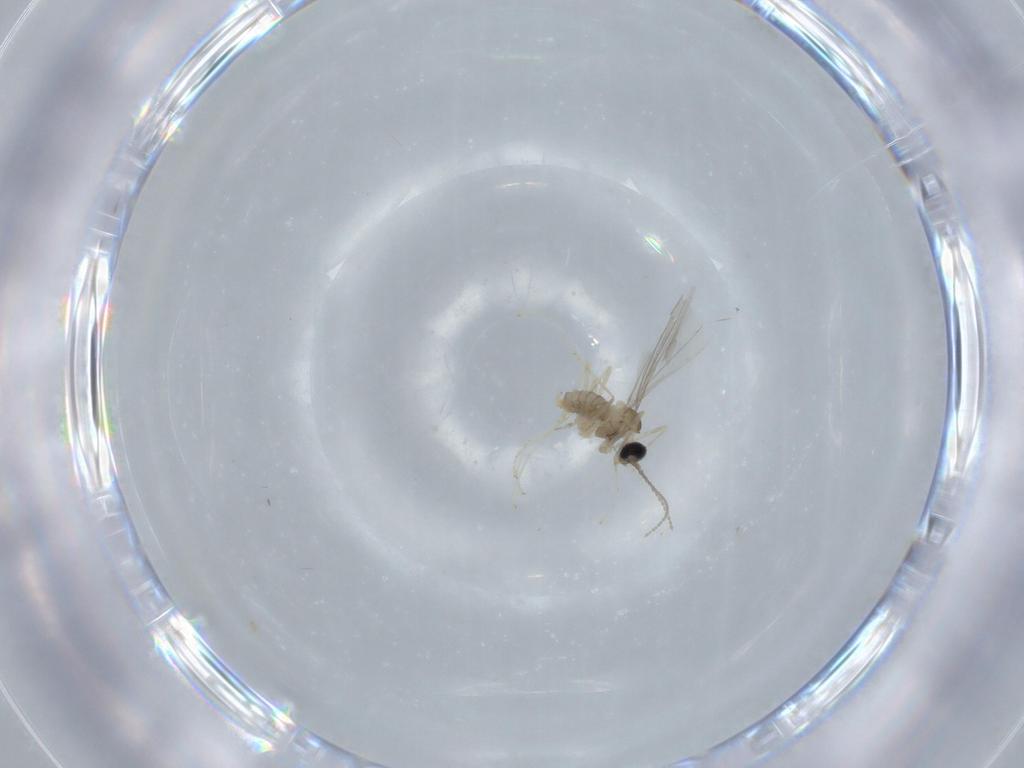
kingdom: Animalia
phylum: Arthropoda
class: Insecta
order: Diptera
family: Cecidomyiidae
